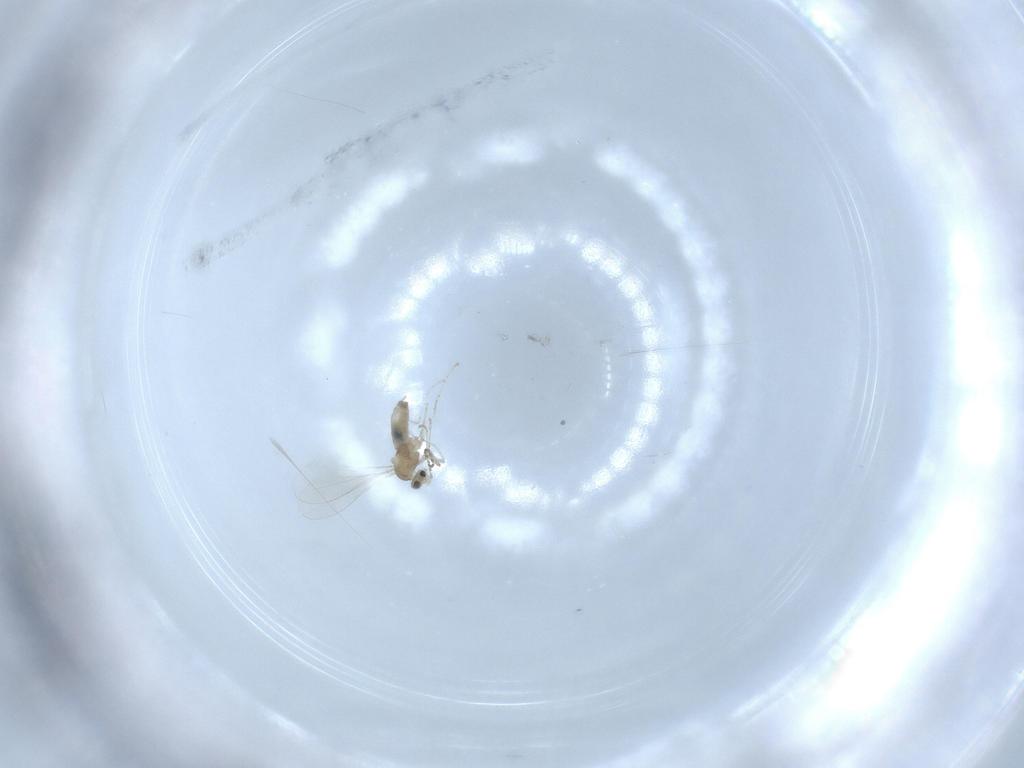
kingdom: Animalia
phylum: Arthropoda
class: Insecta
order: Diptera
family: Cecidomyiidae
